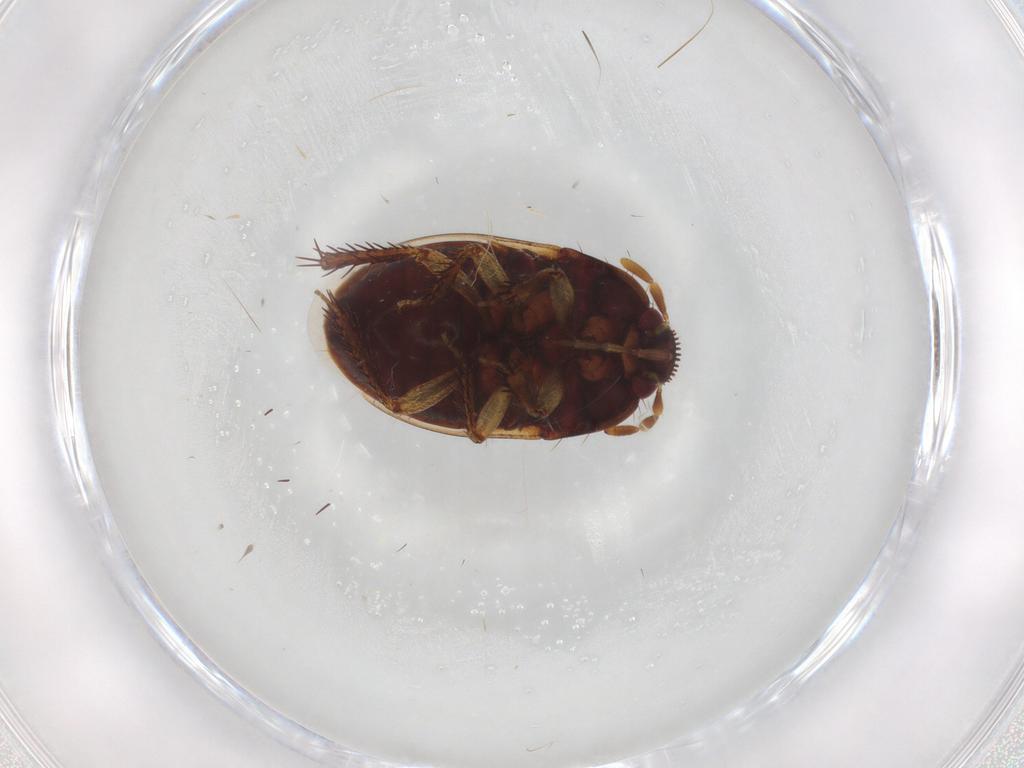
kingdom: Animalia
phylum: Arthropoda
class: Insecta
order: Hemiptera
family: Cydnidae
